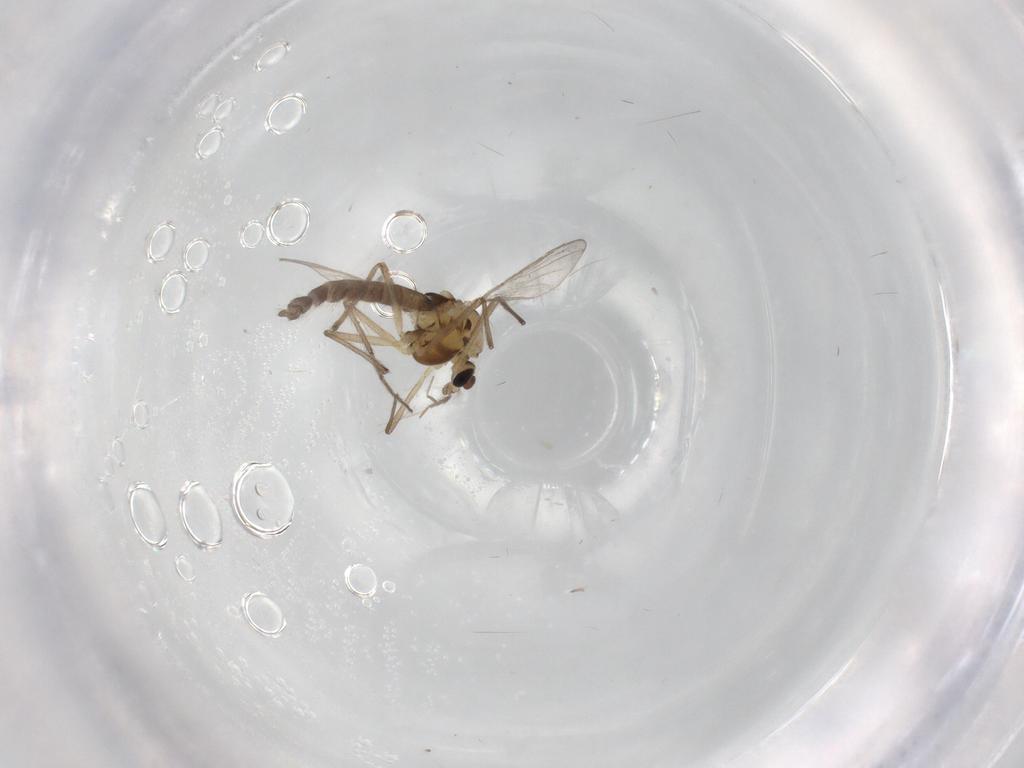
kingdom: Animalia
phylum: Arthropoda
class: Insecta
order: Diptera
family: Chironomidae
